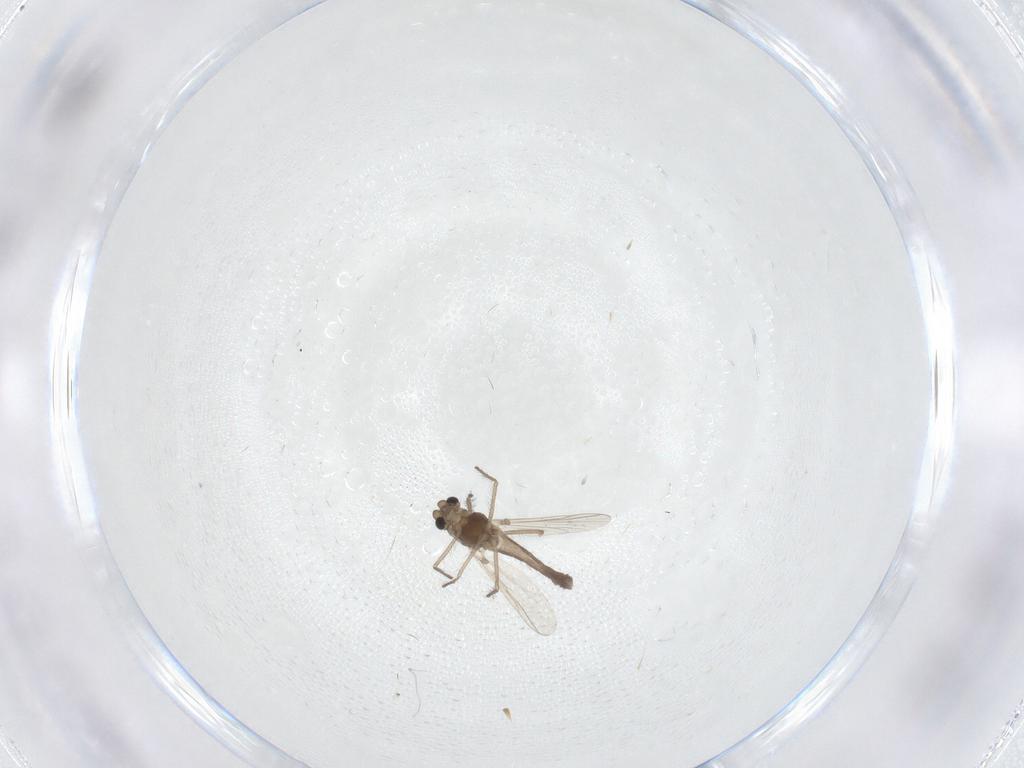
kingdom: Animalia
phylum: Arthropoda
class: Insecta
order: Diptera
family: Chironomidae
